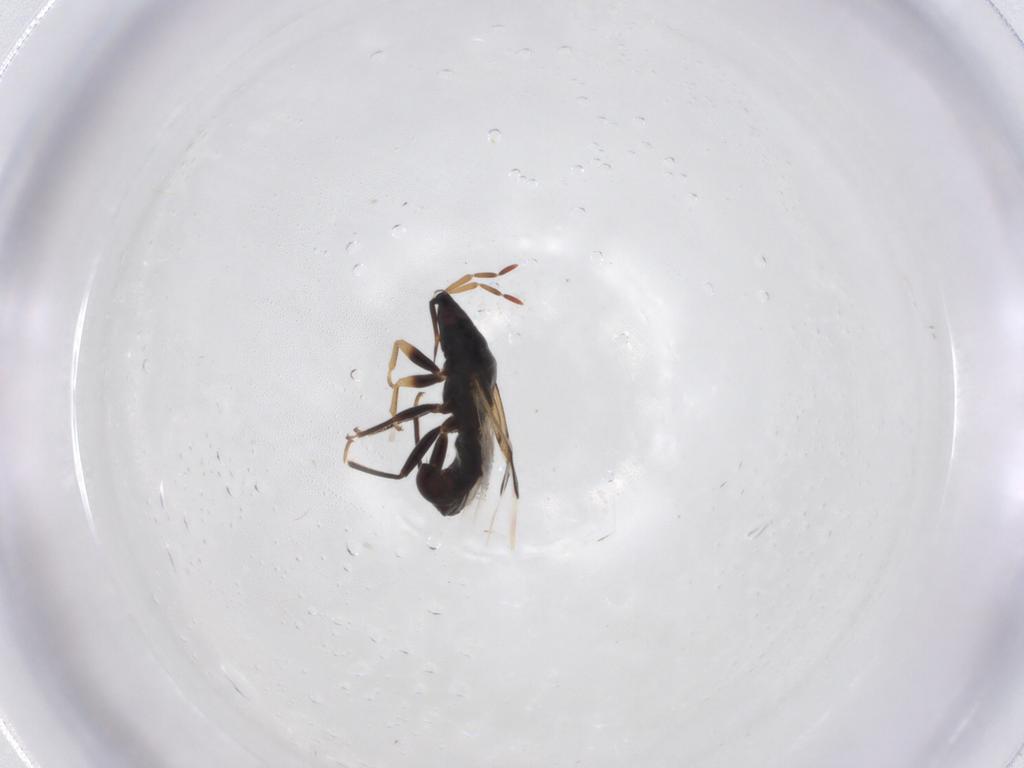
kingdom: Animalia
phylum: Arthropoda
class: Insecta
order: Hemiptera
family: Anthocoridae
